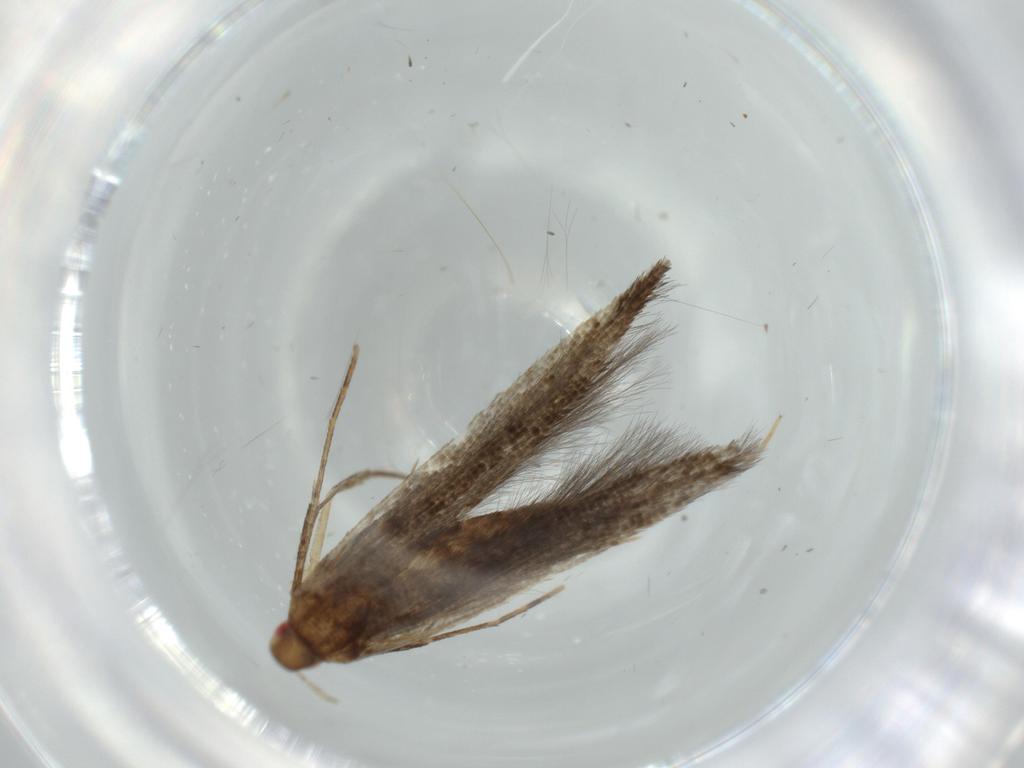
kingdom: Animalia
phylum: Arthropoda
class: Insecta
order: Lepidoptera
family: Cosmopterigidae
